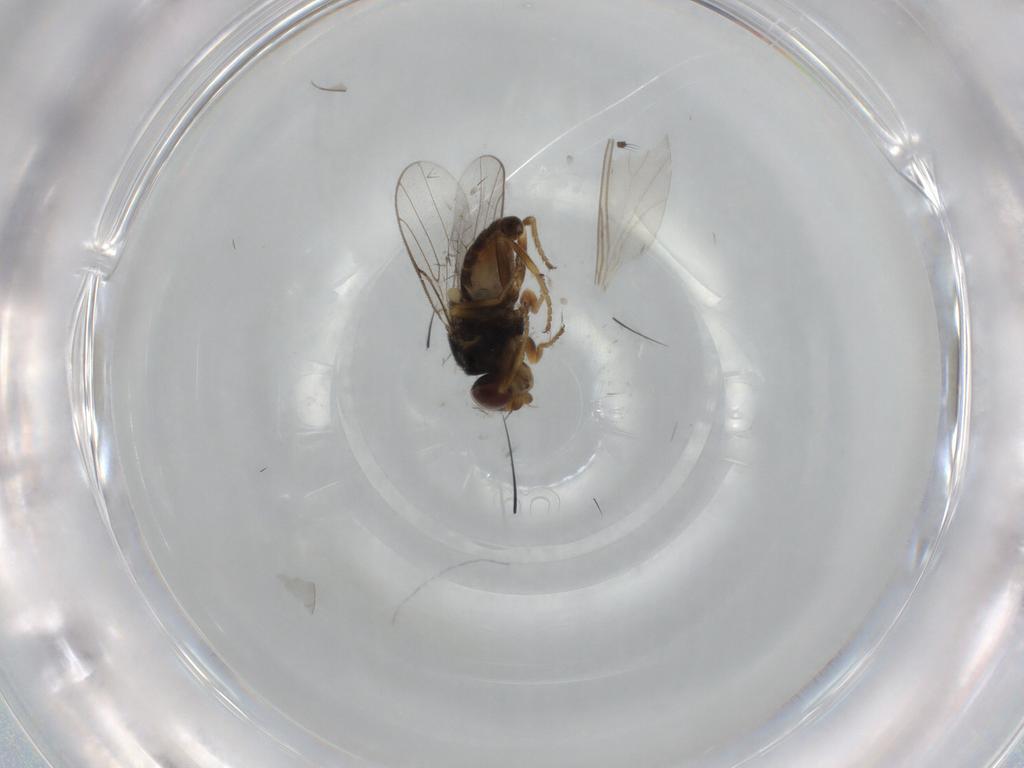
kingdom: Animalia
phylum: Arthropoda
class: Insecta
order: Diptera
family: Chloropidae
